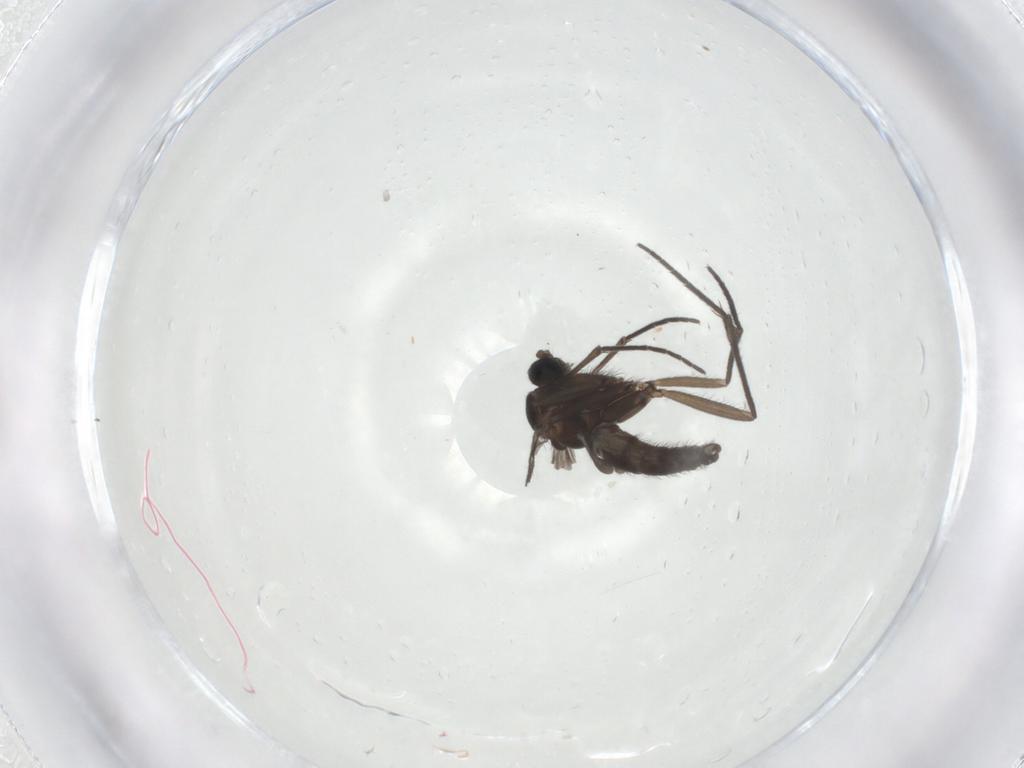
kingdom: Animalia
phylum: Arthropoda
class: Insecta
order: Diptera
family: Sciaridae
